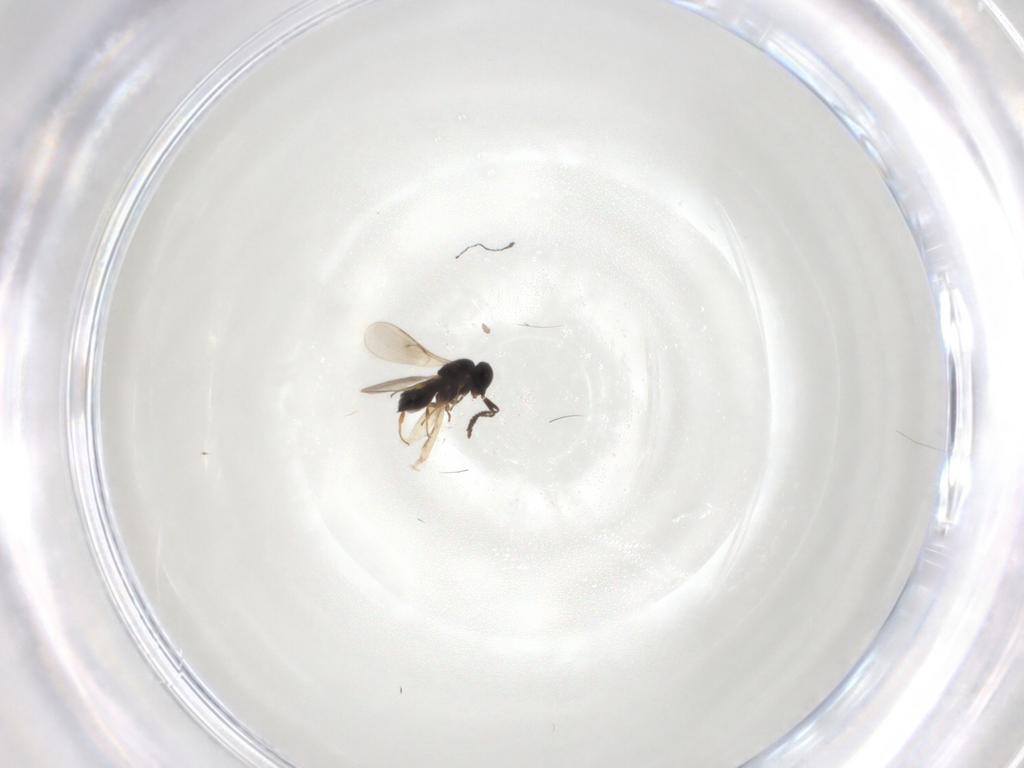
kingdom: Animalia
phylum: Arthropoda
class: Insecta
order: Hymenoptera
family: Scelionidae
